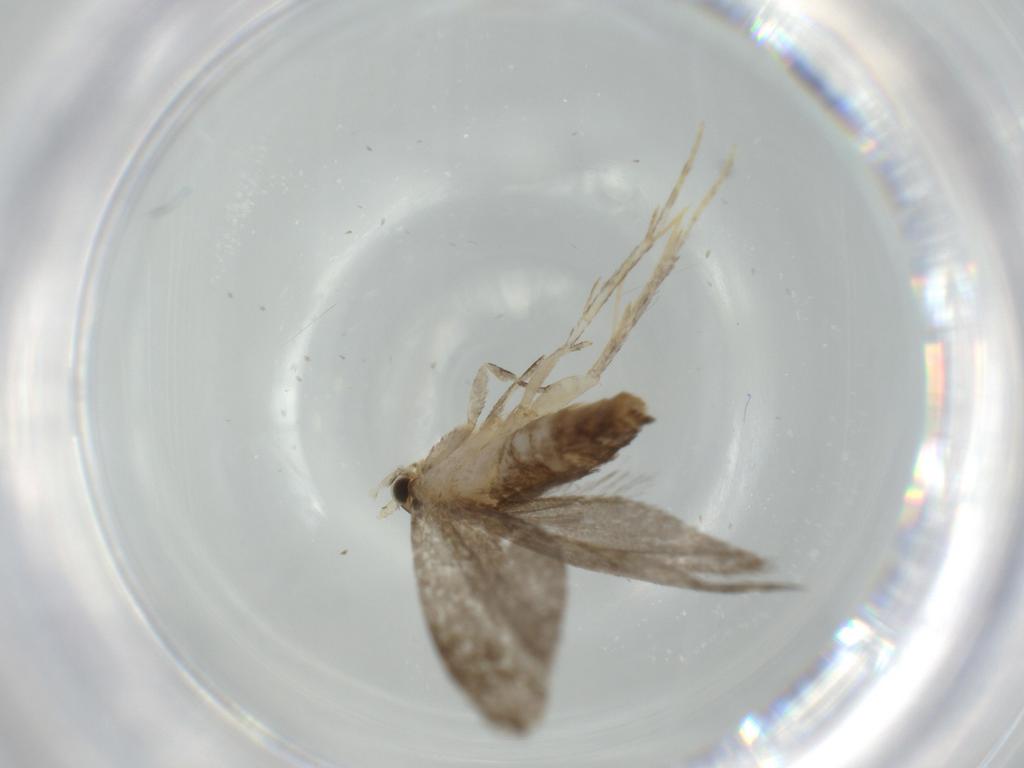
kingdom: Animalia
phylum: Arthropoda
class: Insecta
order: Lepidoptera
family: Tineidae
